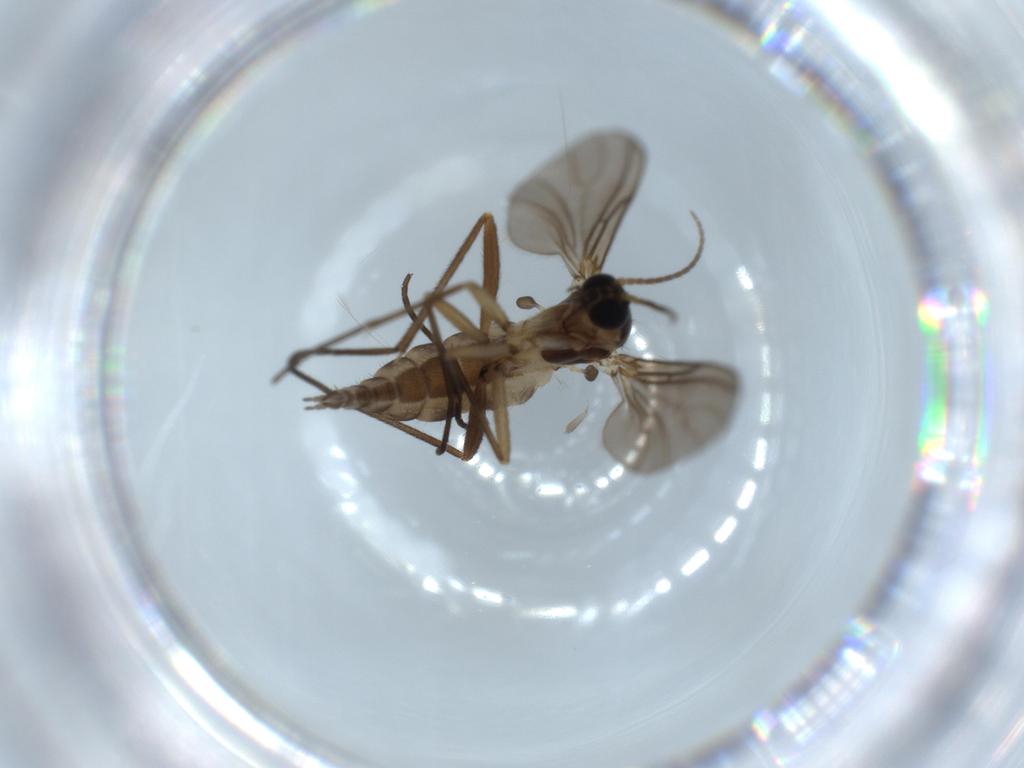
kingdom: Animalia
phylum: Arthropoda
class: Insecta
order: Diptera
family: Sciaridae
